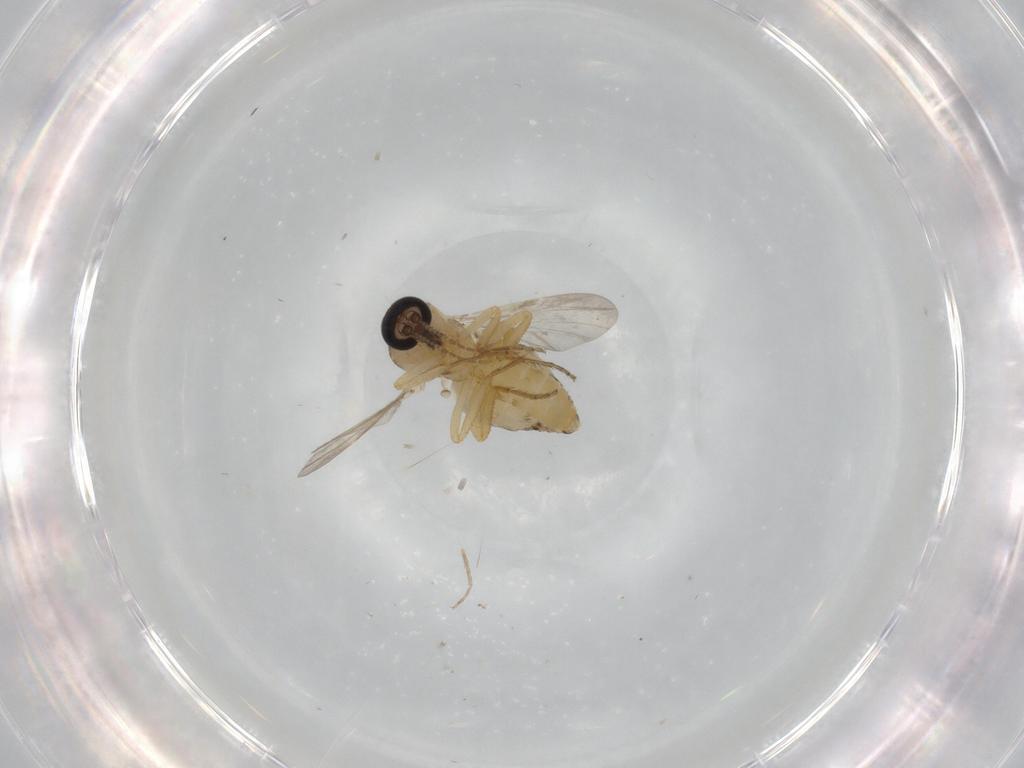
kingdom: Animalia
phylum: Arthropoda
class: Insecta
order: Diptera
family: Ceratopogonidae
